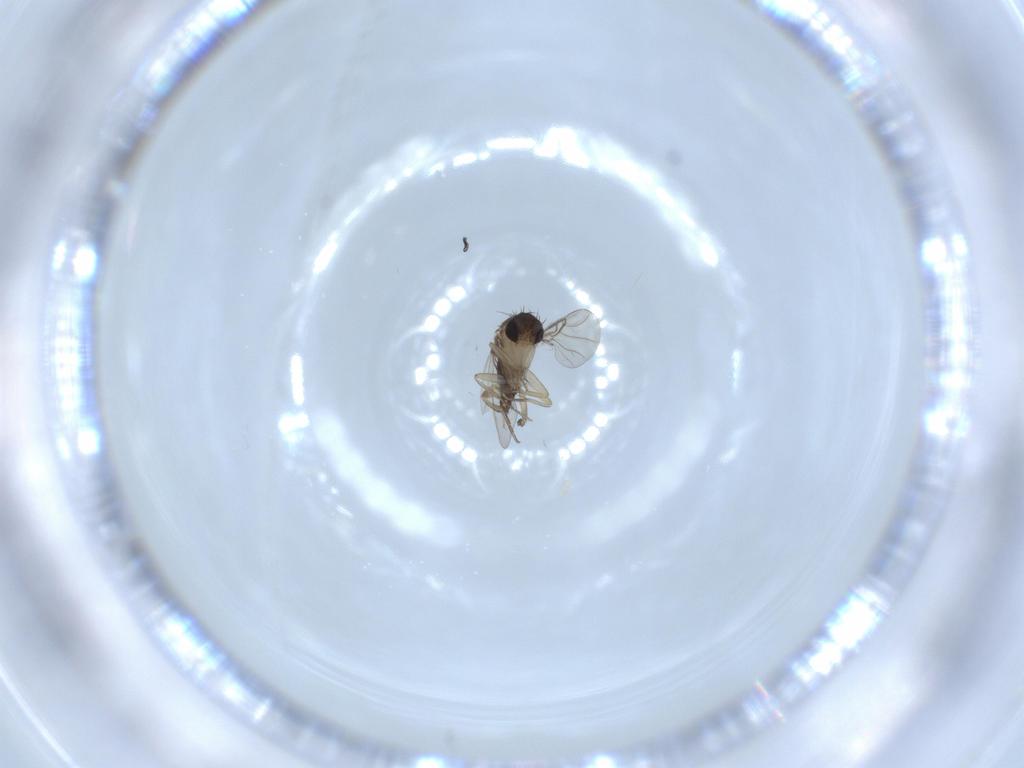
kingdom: Animalia
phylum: Arthropoda
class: Insecta
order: Diptera
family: Phoridae
